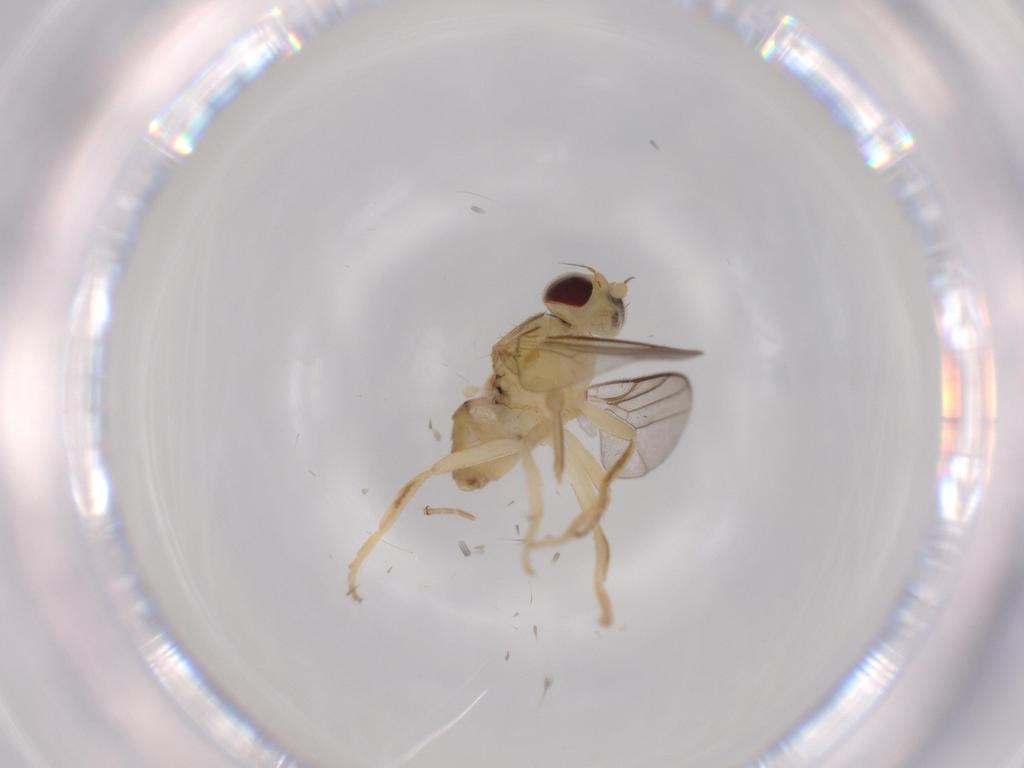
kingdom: Animalia
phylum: Arthropoda
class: Insecta
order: Diptera
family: Chloropidae
